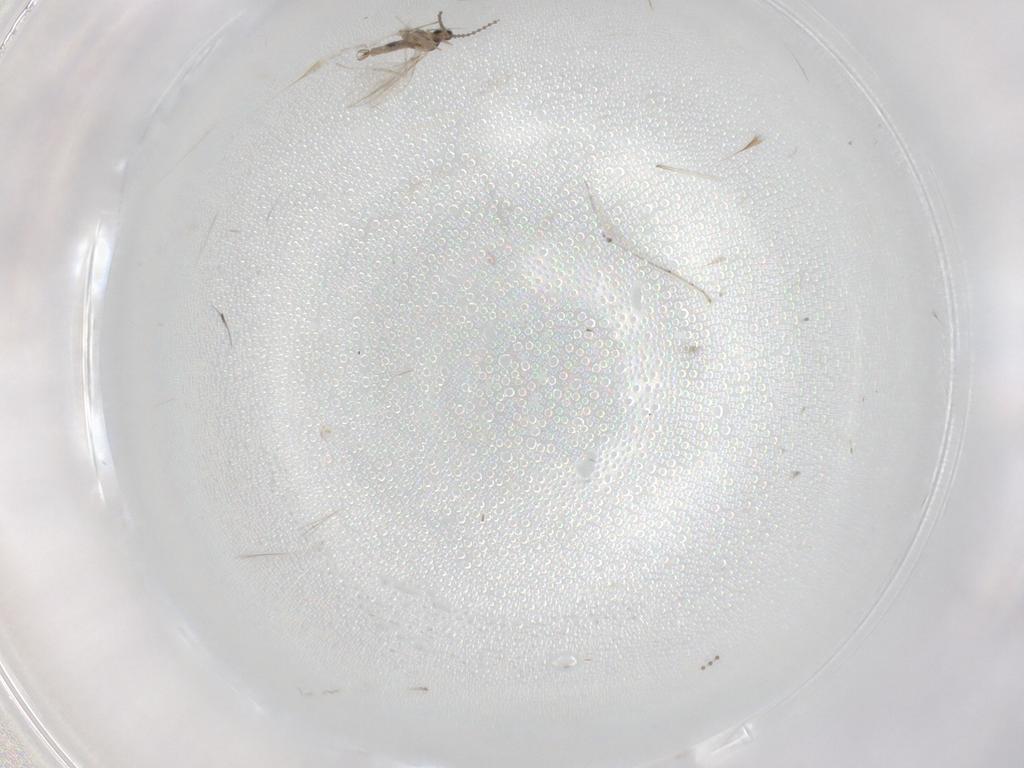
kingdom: Animalia
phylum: Arthropoda
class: Insecta
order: Diptera
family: Cecidomyiidae
